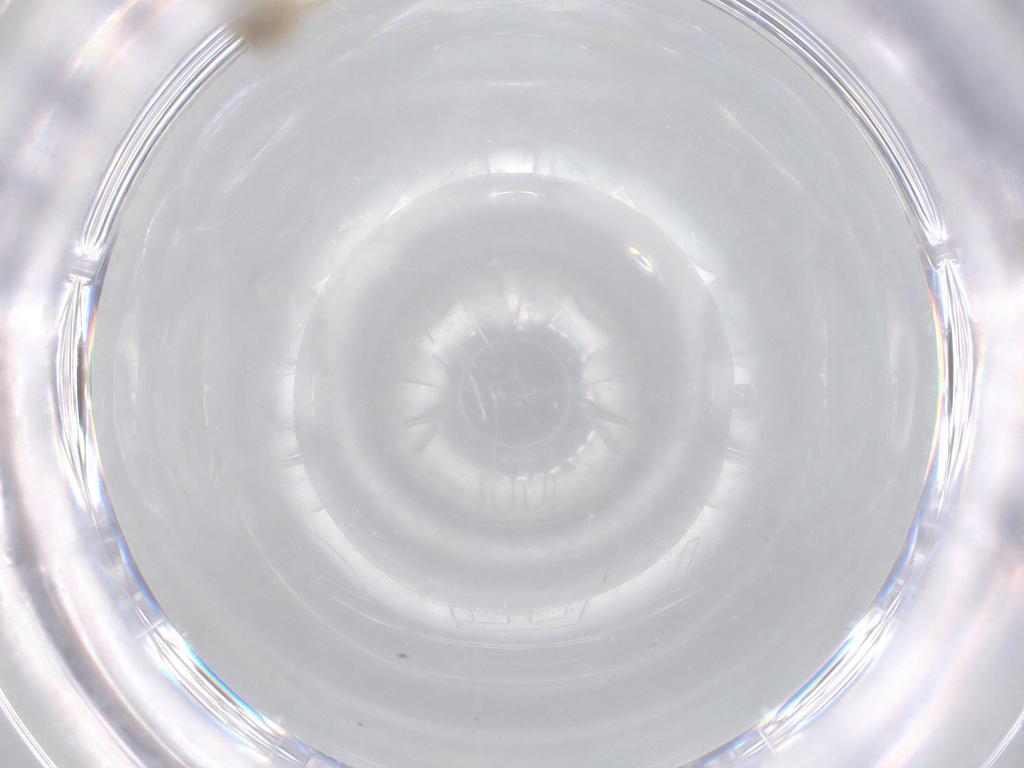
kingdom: Animalia
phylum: Arthropoda
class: Insecta
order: Diptera
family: Cecidomyiidae
